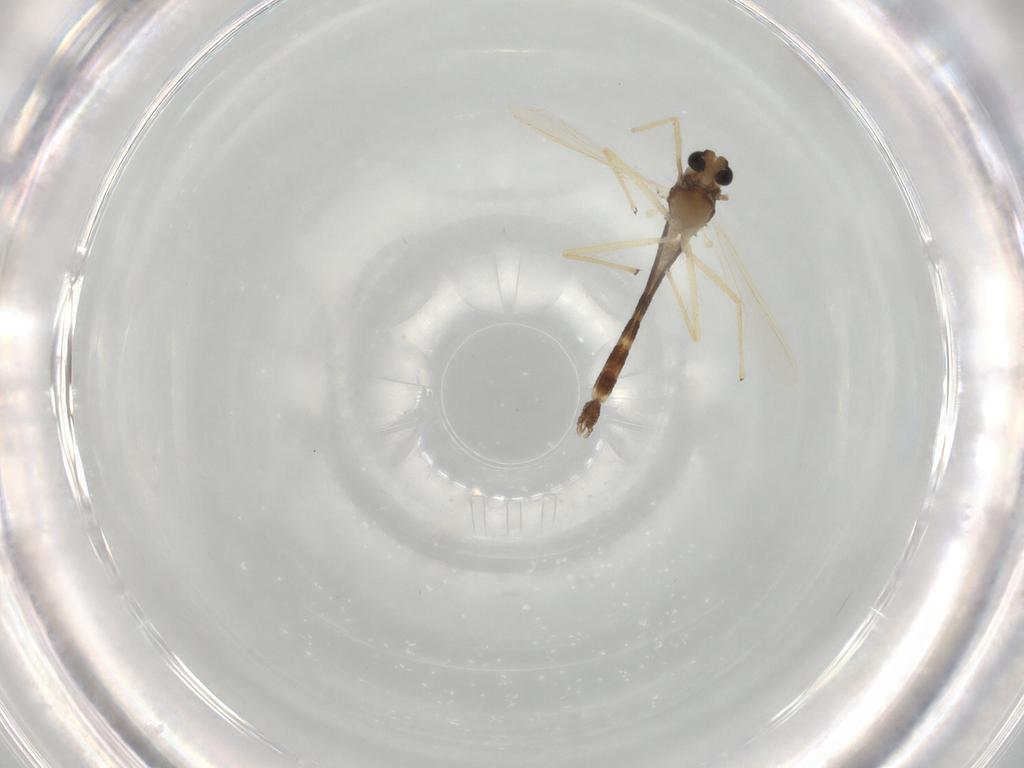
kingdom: Animalia
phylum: Arthropoda
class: Insecta
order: Diptera
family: Chironomidae
